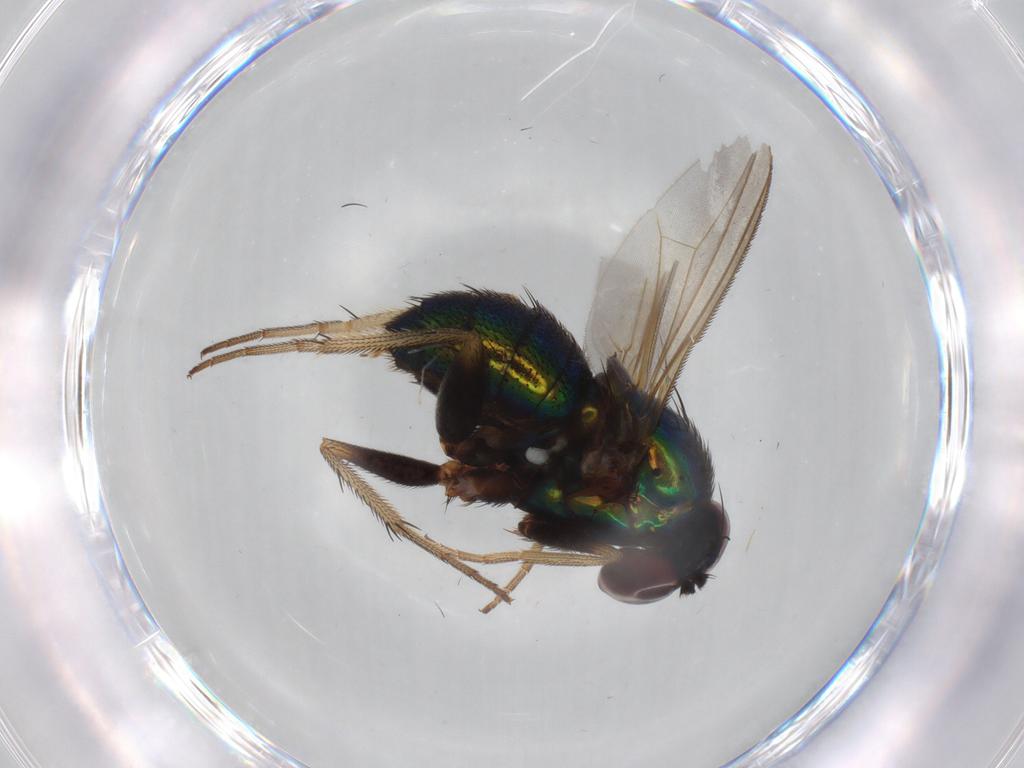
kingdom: Animalia
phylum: Arthropoda
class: Insecta
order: Diptera
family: Dolichopodidae
